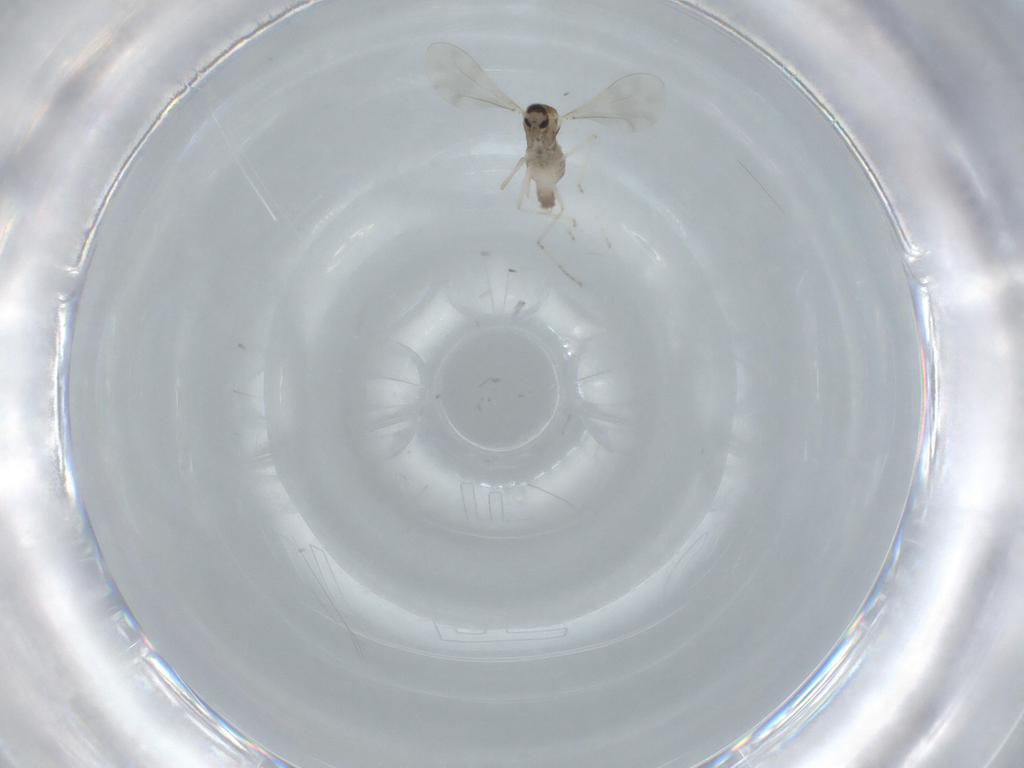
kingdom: Animalia
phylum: Arthropoda
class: Insecta
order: Diptera
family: Cecidomyiidae
